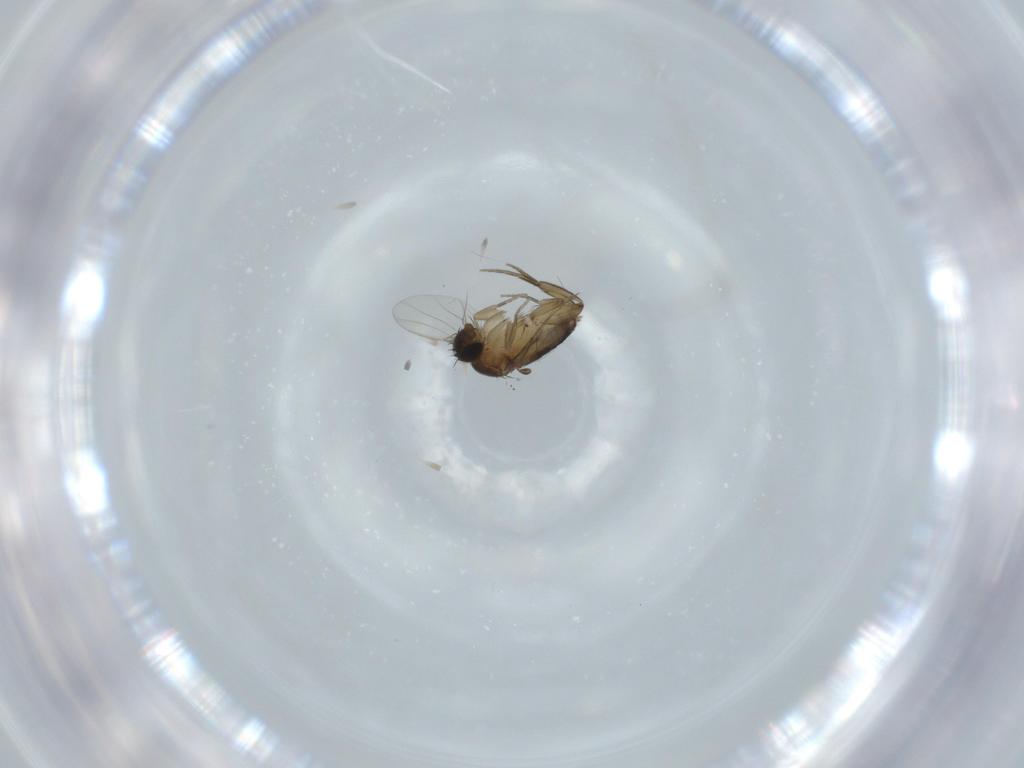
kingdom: Animalia
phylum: Arthropoda
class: Insecta
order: Diptera
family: Phoridae
